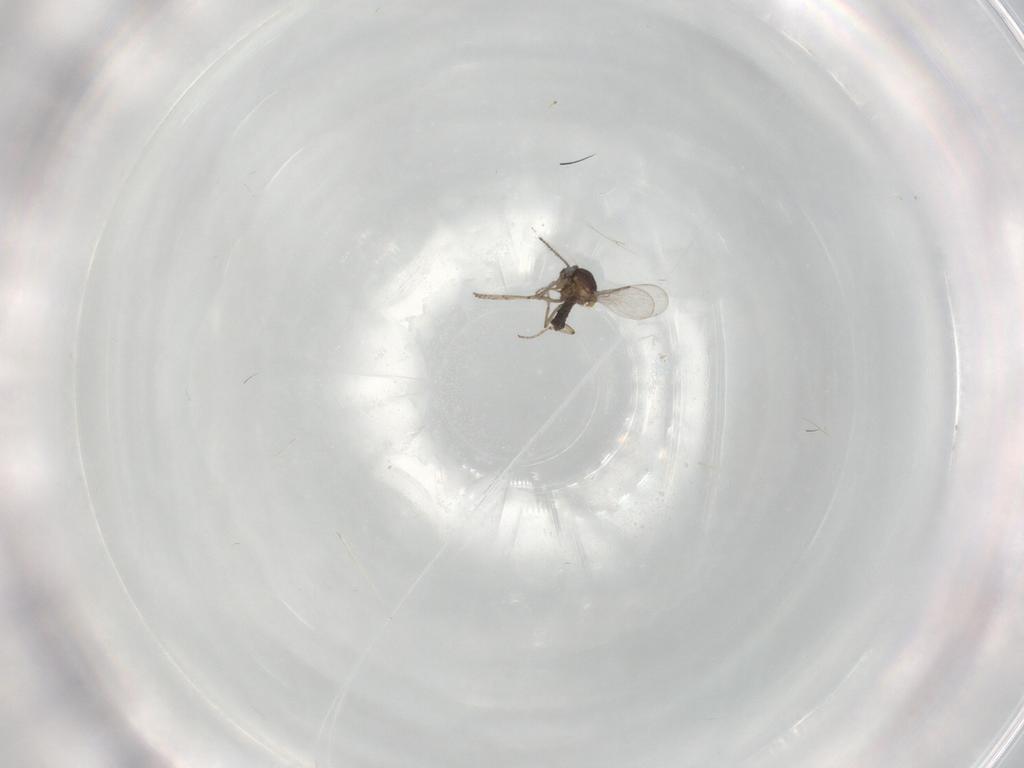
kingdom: Animalia
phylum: Arthropoda
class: Insecta
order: Diptera
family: Ceratopogonidae
